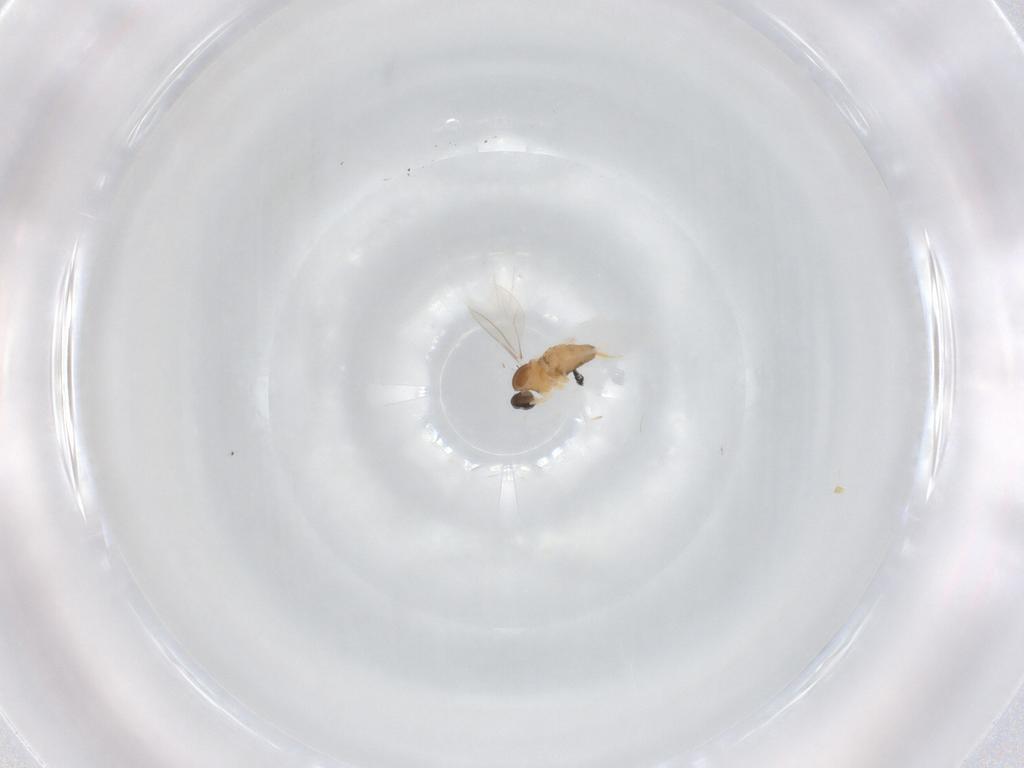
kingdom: Animalia
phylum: Arthropoda
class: Insecta
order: Diptera
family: Cecidomyiidae
